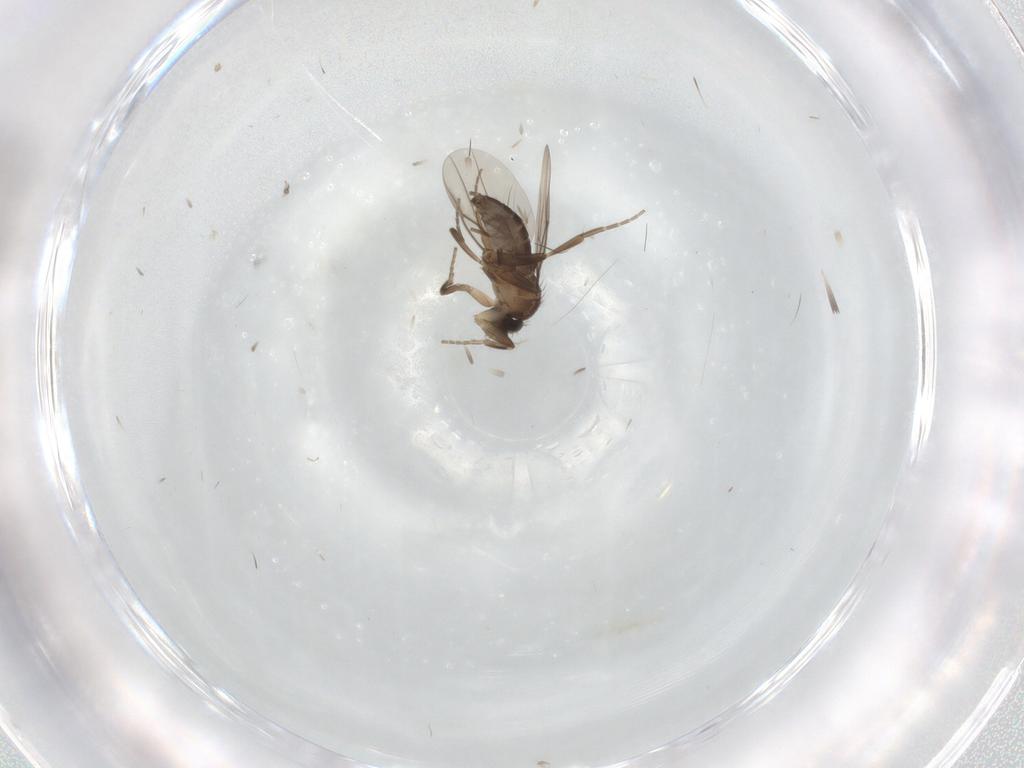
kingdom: Animalia
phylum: Arthropoda
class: Insecta
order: Diptera
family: Phoridae
